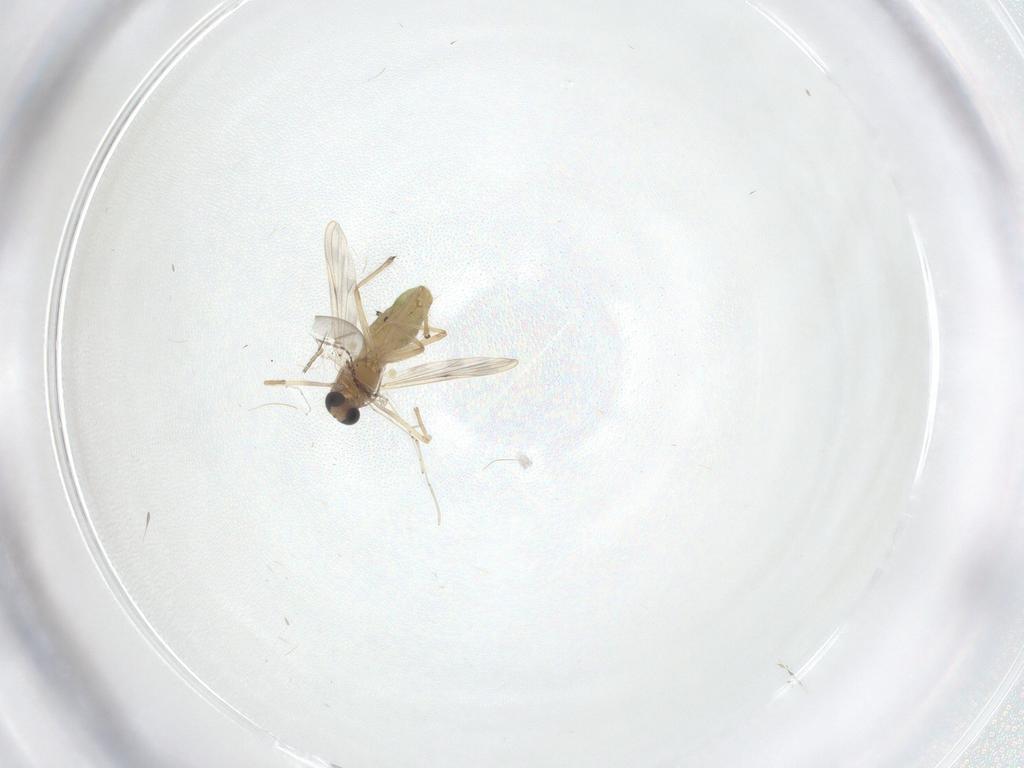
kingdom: Animalia
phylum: Arthropoda
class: Insecta
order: Diptera
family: Chironomidae
